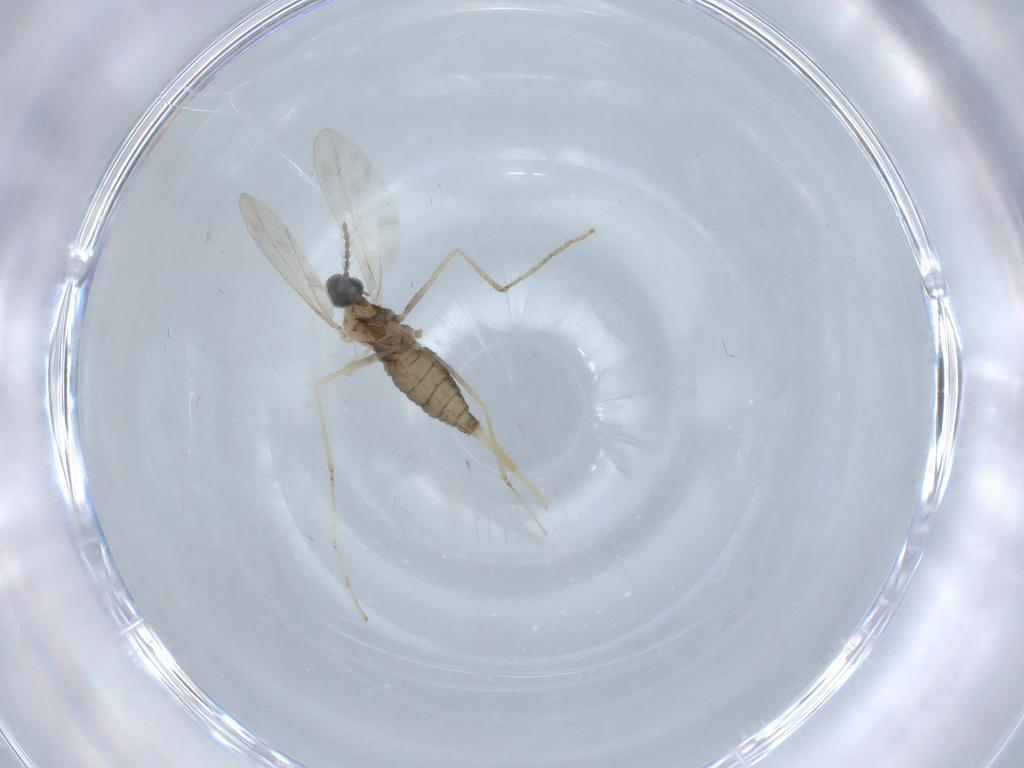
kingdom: Animalia
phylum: Arthropoda
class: Insecta
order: Diptera
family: Cecidomyiidae
